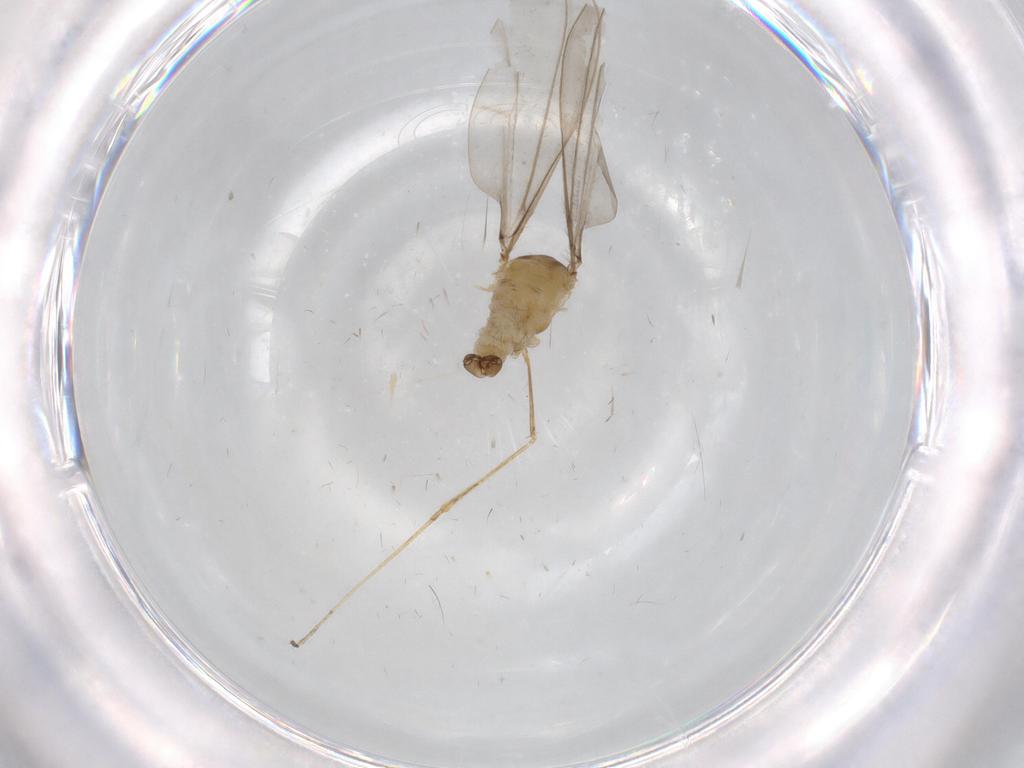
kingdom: Animalia
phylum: Arthropoda
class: Insecta
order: Diptera
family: Cecidomyiidae
